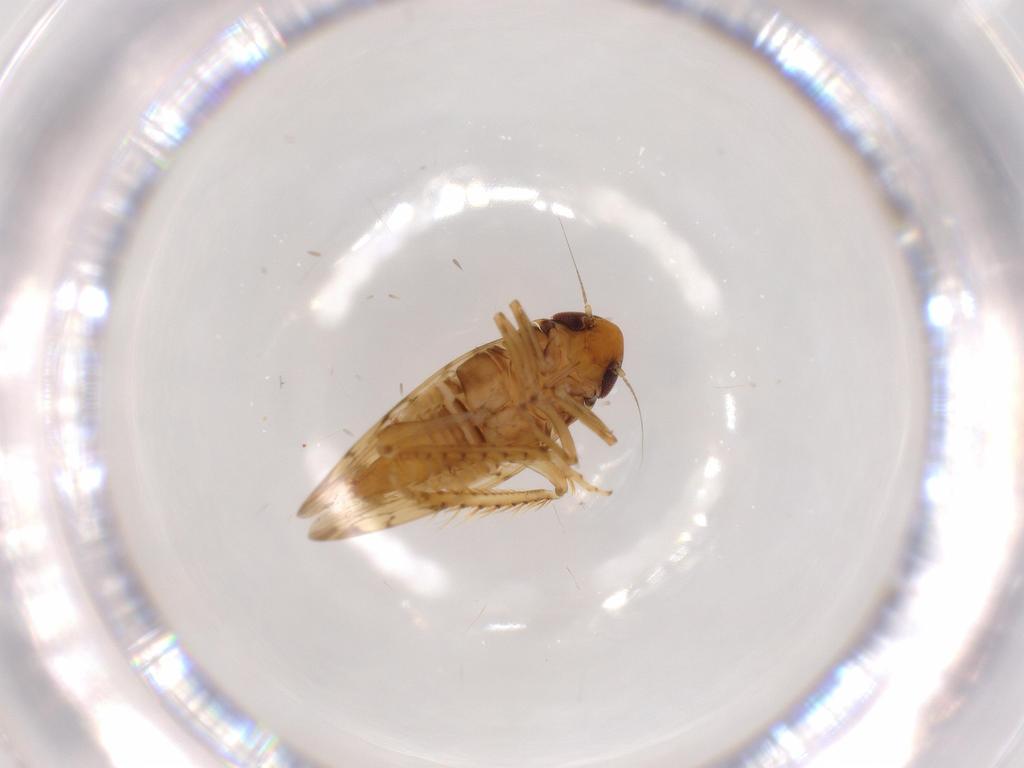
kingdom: Animalia
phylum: Arthropoda
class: Insecta
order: Hemiptera
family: Cicadellidae
